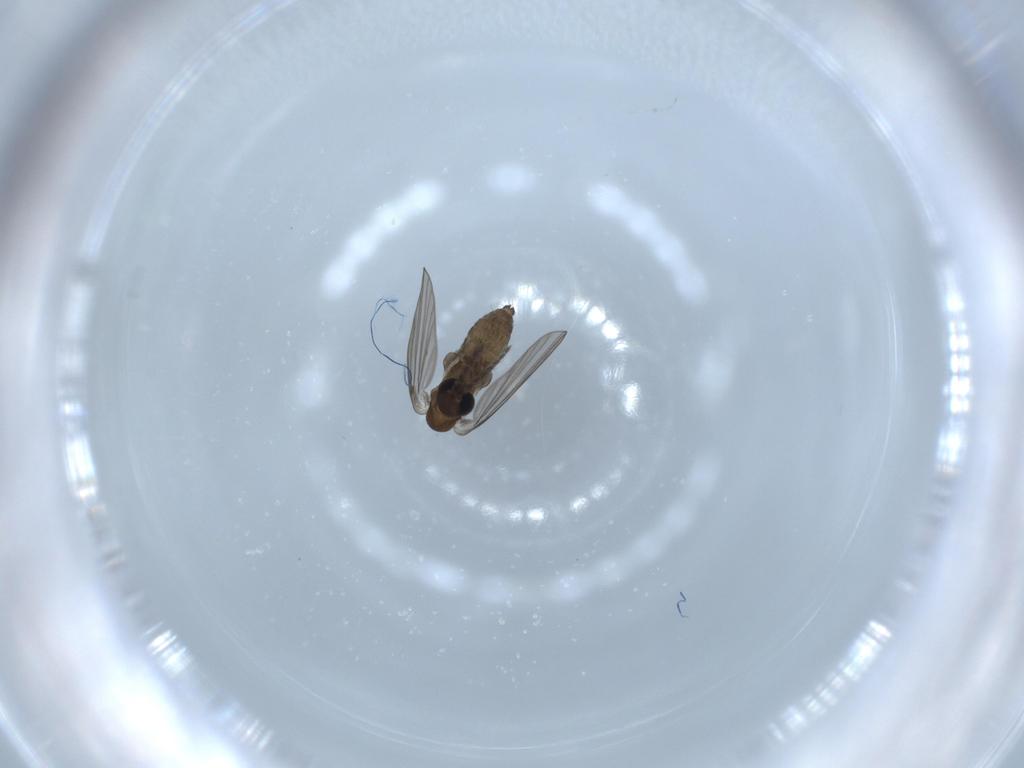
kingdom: Animalia
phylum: Arthropoda
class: Insecta
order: Diptera
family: Psychodidae
